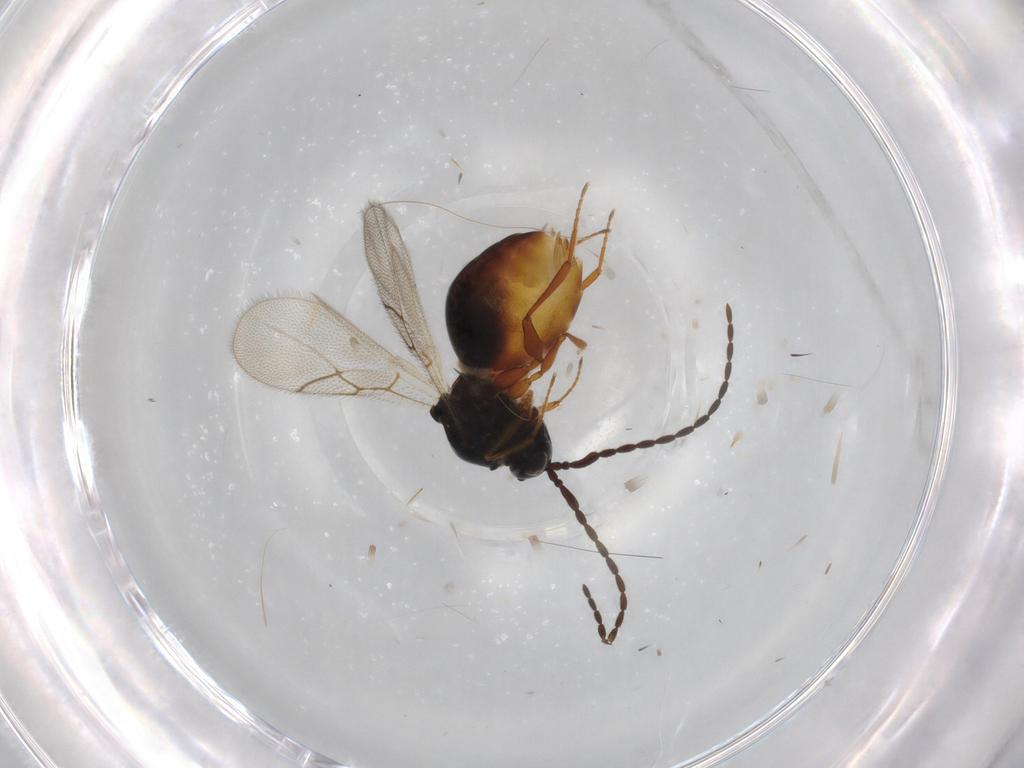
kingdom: Animalia
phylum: Arthropoda
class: Insecta
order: Hymenoptera
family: Figitidae
